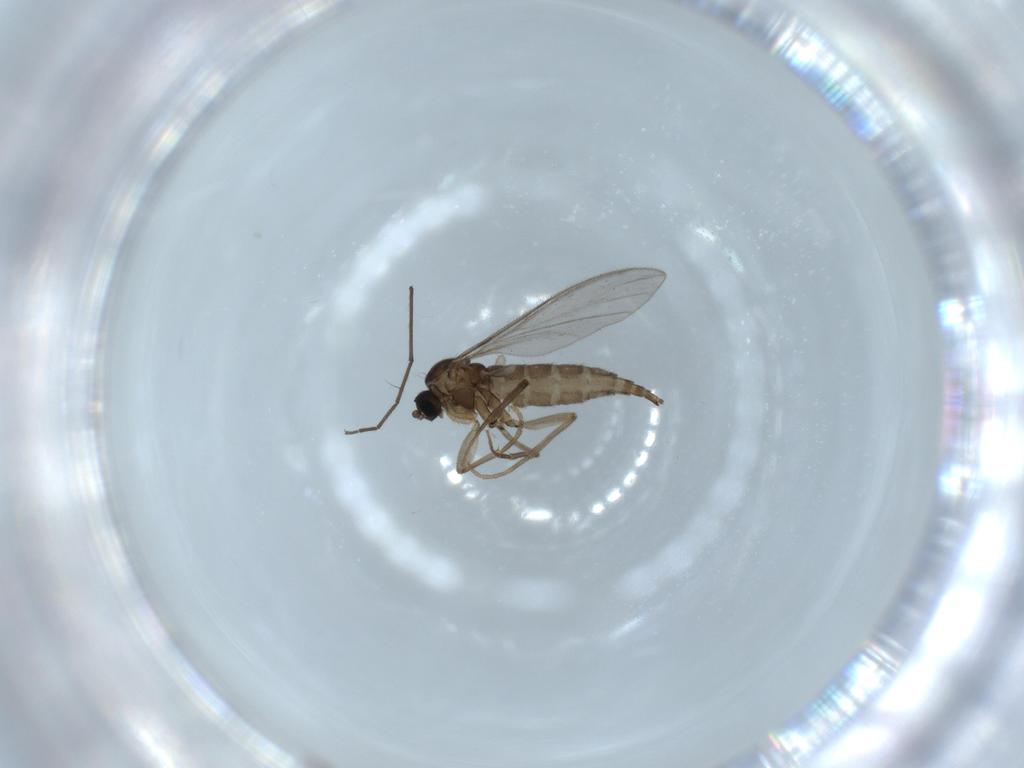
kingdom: Animalia
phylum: Arthropoda
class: Insecta
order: Diptera
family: Sciaridae
